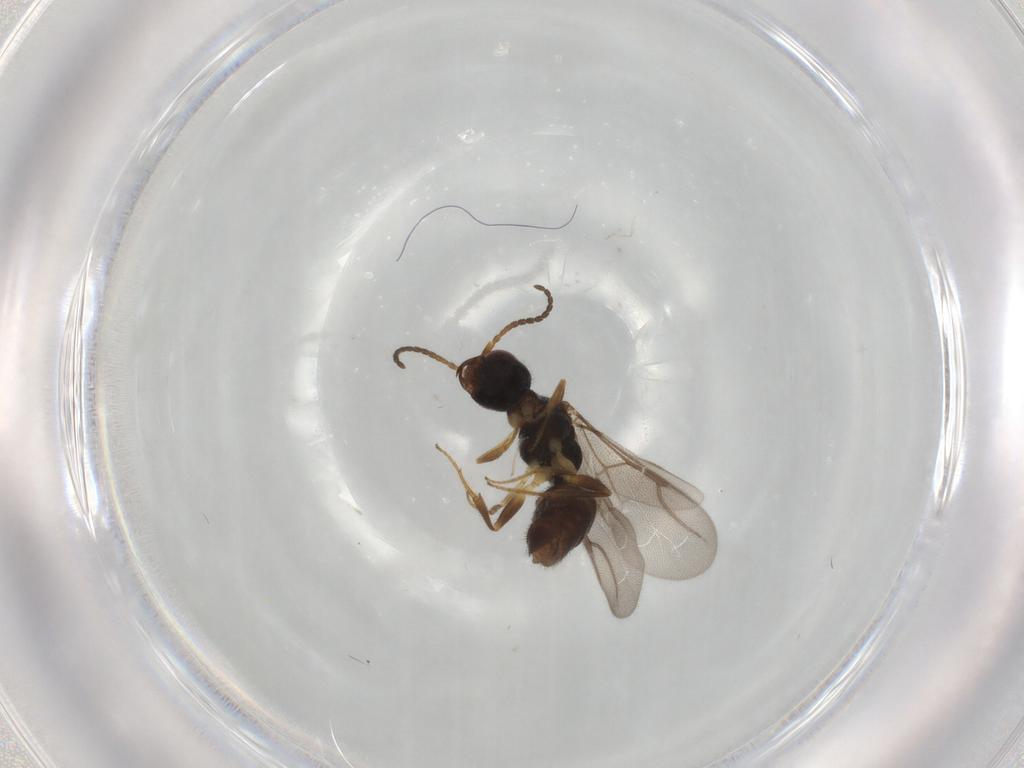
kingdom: Animalia
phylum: Arthropoda
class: Insecta
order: Hymenoptera
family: Bethylidae
